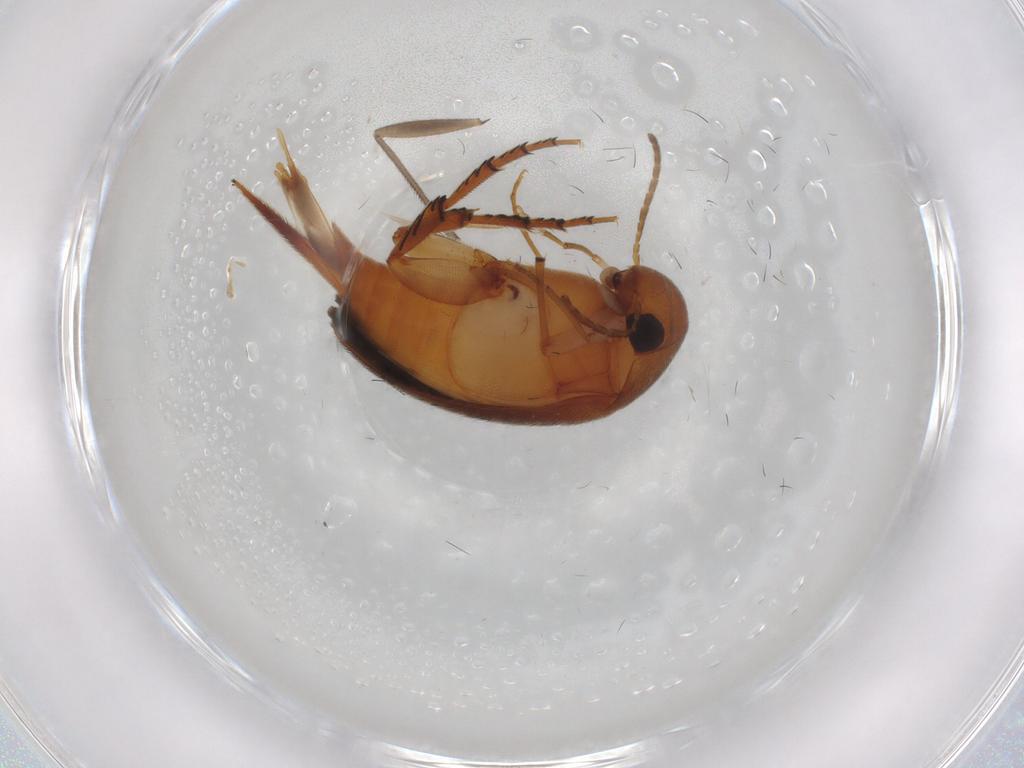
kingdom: Animalia
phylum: Arthropoda
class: Insecta
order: Coleoptera
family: Mordellidae
